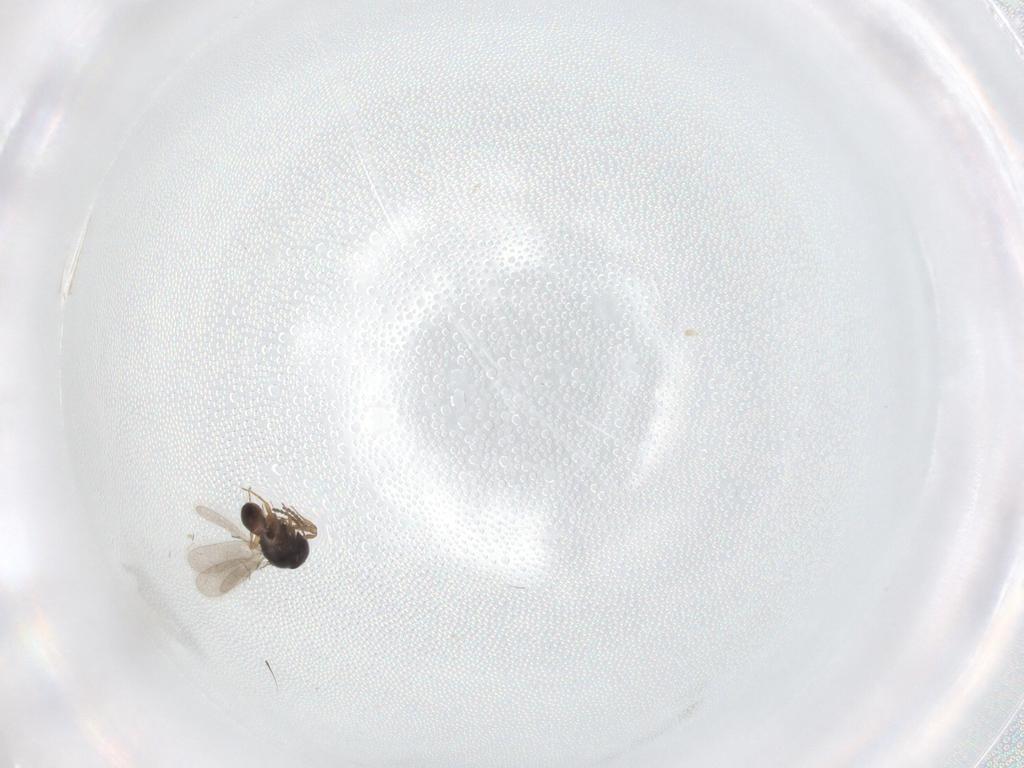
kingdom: Animalia
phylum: Arthropoda
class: Insecta
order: Hymenoptera
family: Scelionidae
